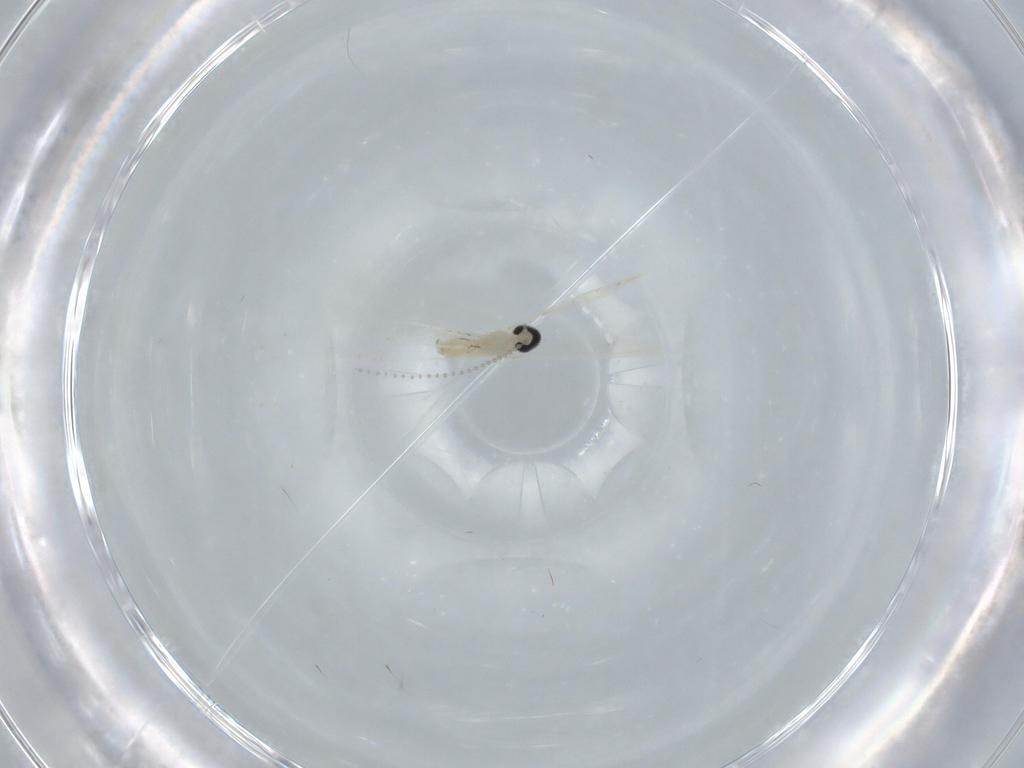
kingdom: Animalia
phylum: Arthropoda
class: Insecta
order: Diptera
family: Cecidomyiidae
